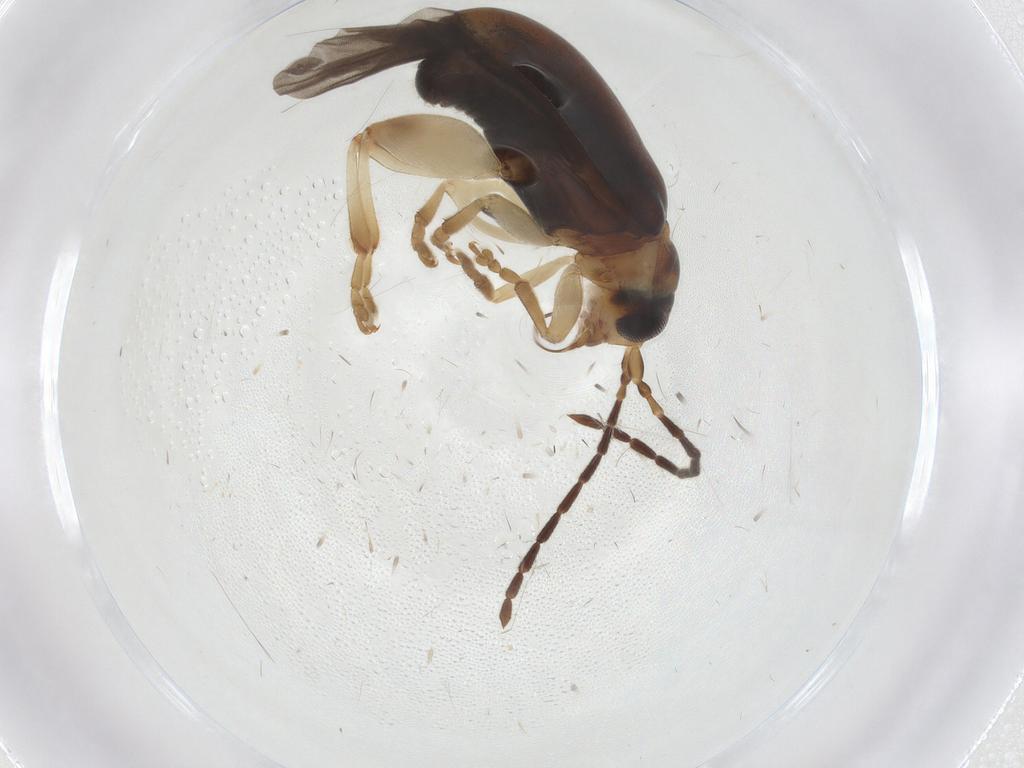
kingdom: Animalia
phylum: Arthropoda
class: Insecta
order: Coleoptera
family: Chrysomelidae
